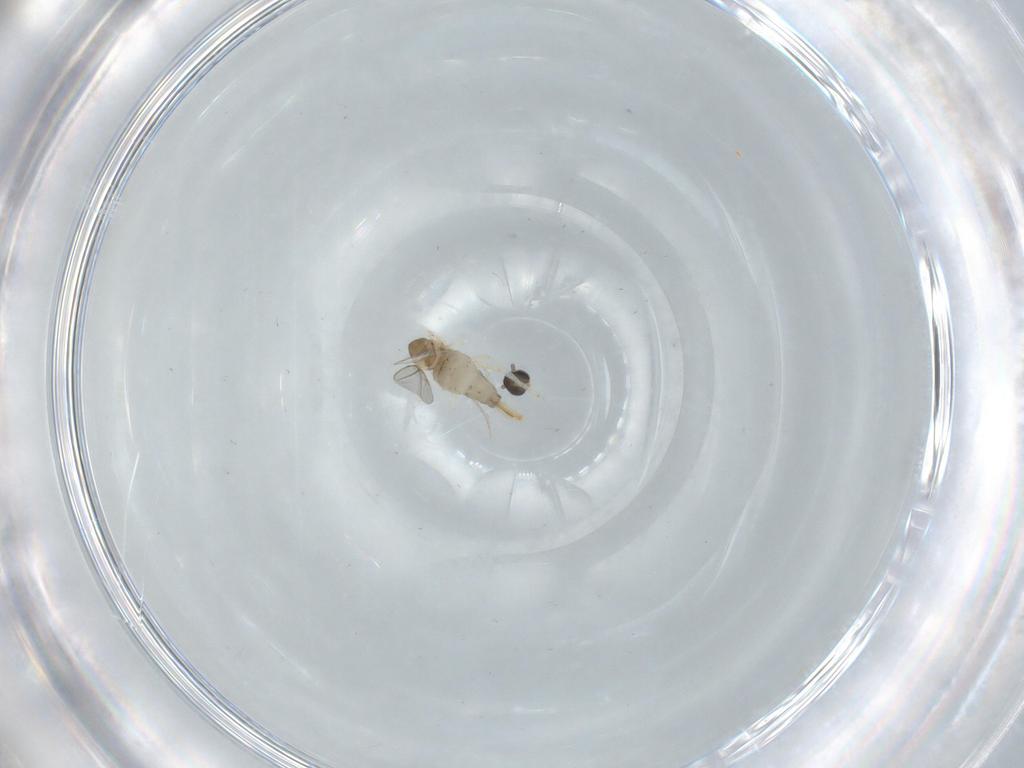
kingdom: Animalia
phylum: Arthropoda
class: Insecta
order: Diptera
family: Cecidomyiidae
